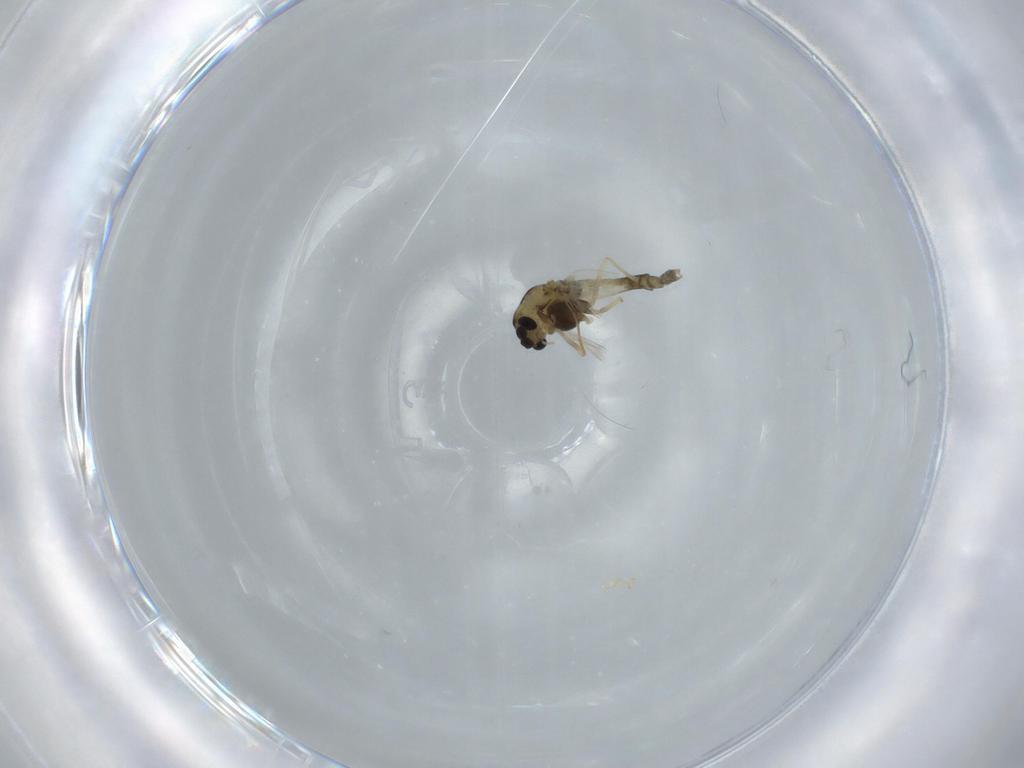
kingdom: Animalia
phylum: Arthropoda
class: Insecta
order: Diptera
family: Chironomidae
